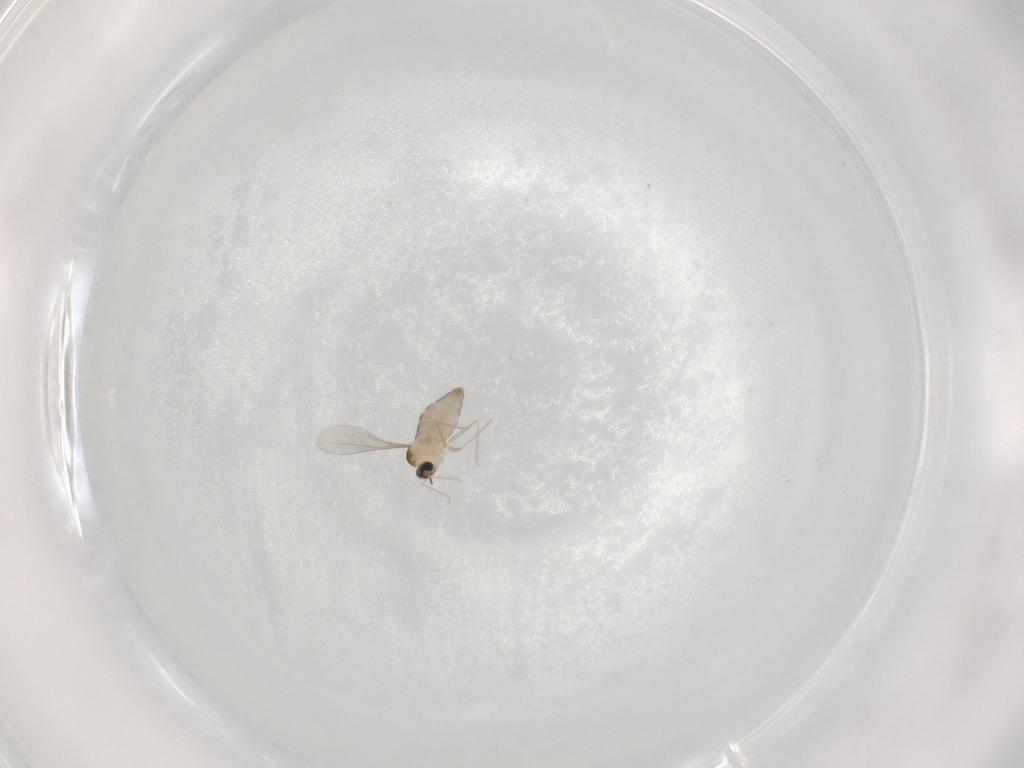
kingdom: Animalia
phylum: Arthropoda
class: Insecta
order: Diptera
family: Cecidomyiidae
